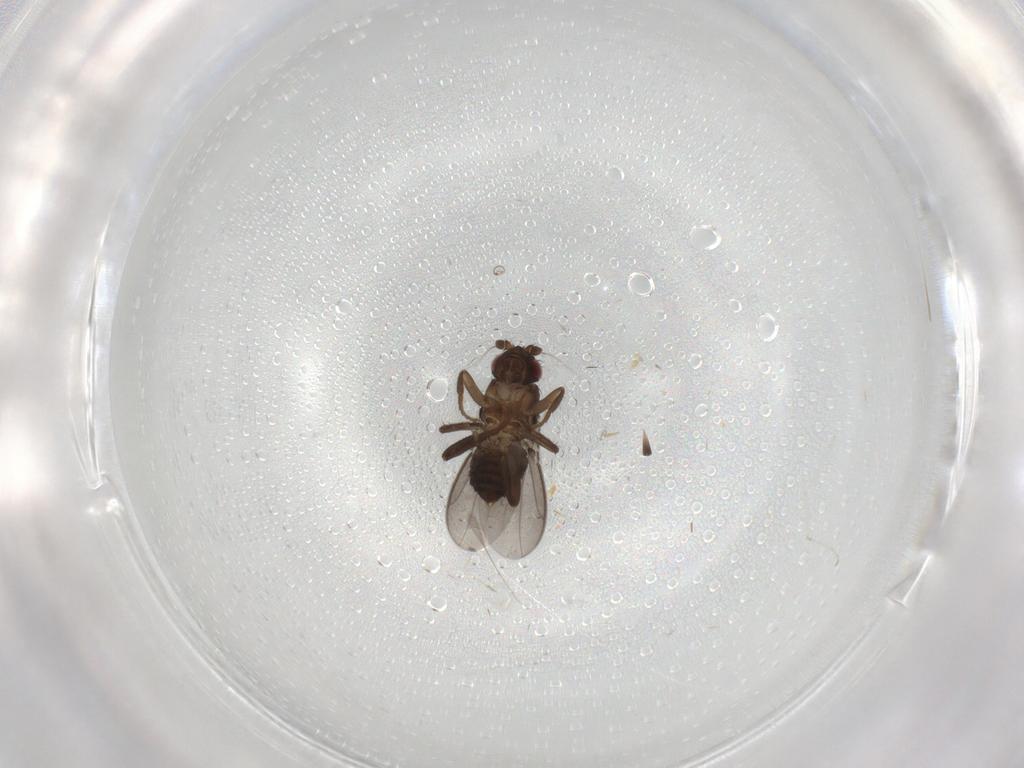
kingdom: Animalia
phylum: Arthropoda
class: Insecta
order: Diptera
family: Sphaeroceridae
